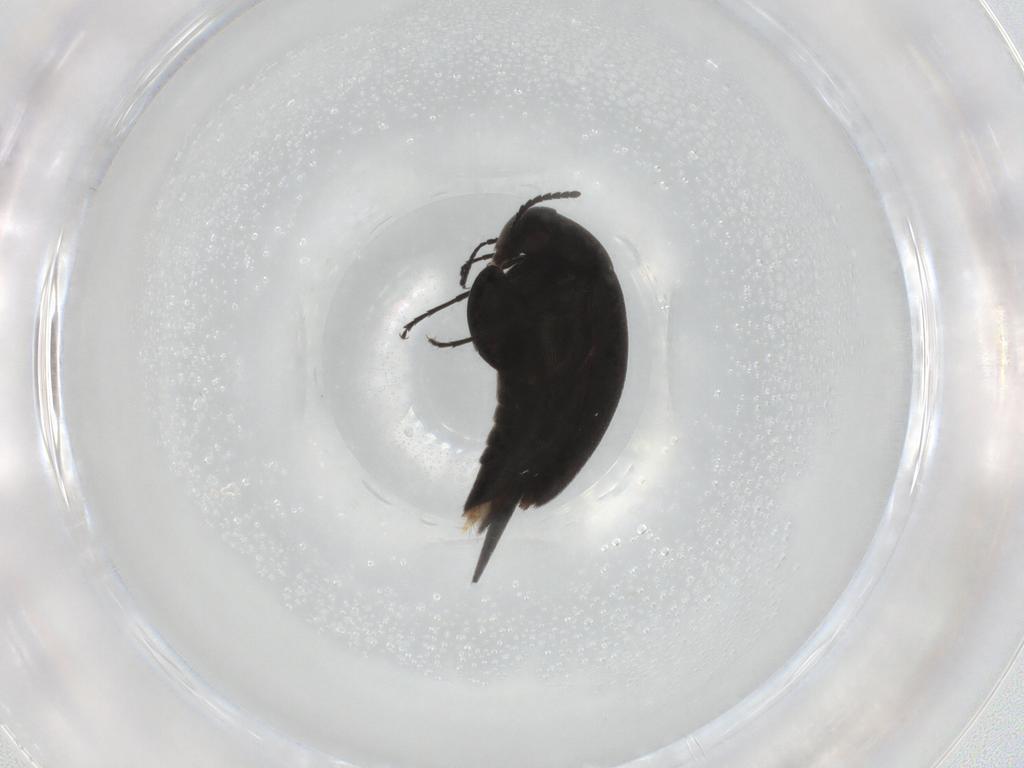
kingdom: Animalia
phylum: Arthropoda
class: Insecta
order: Coleoptera
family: Mordellidae
